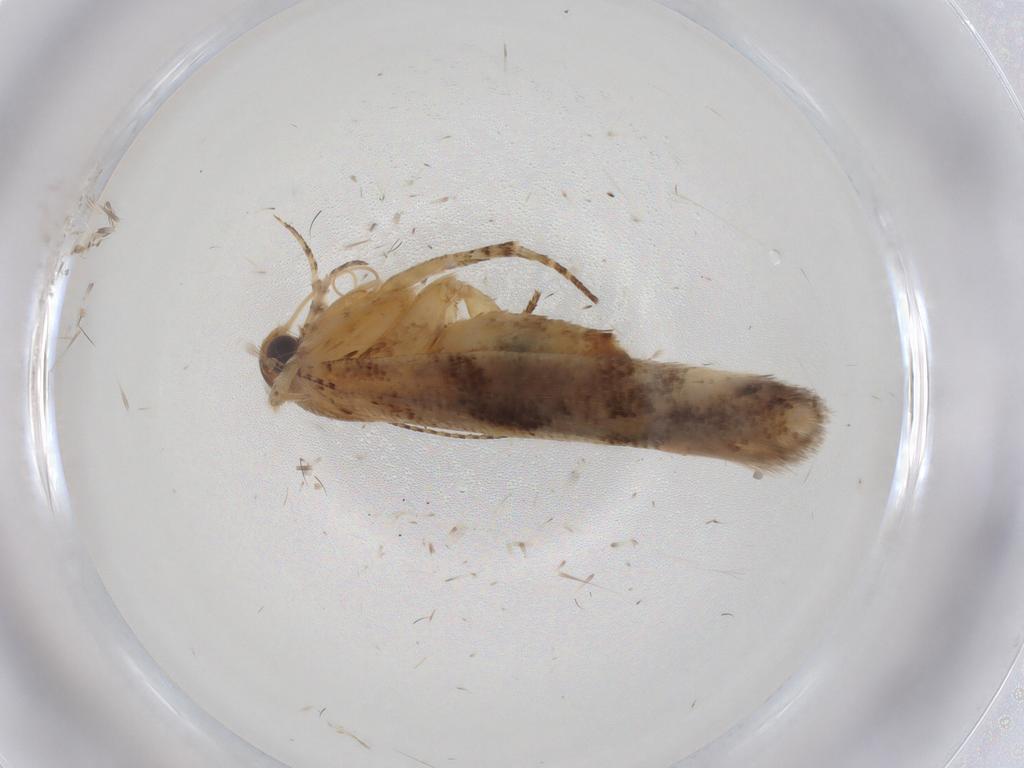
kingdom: Animalia
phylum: Arthropoda
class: Insecta
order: Lepidoptera
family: Gelechiidae
